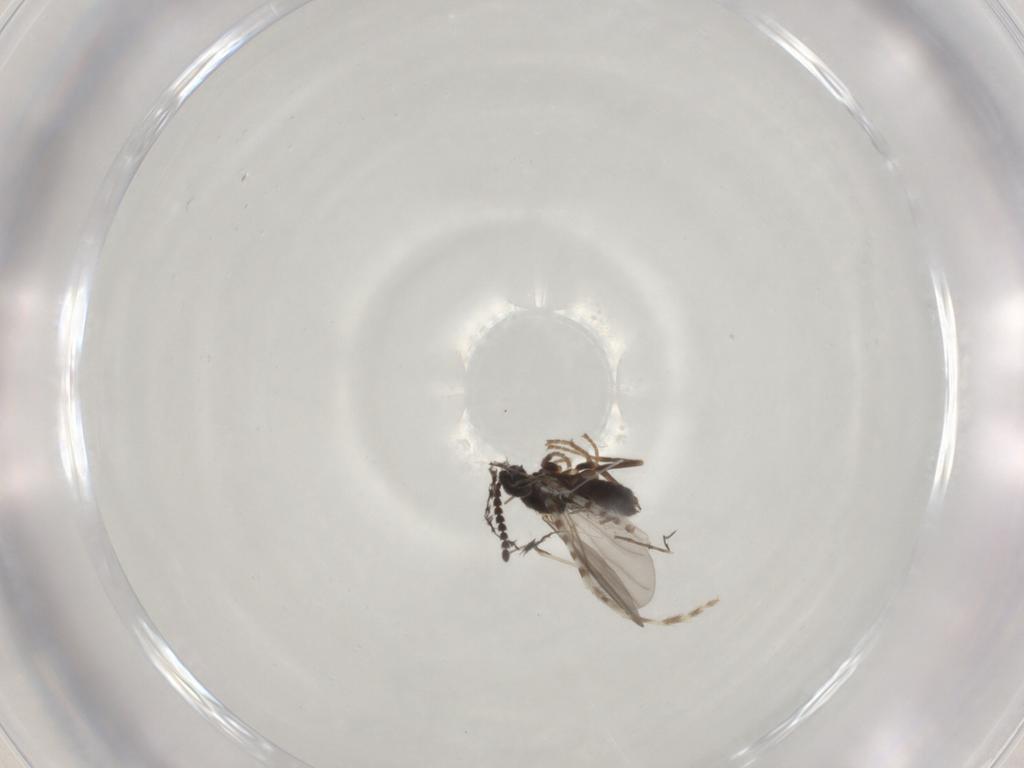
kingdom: Animalia
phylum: Arthropoda
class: Insecta
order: Diptera
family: Scatopsidae
